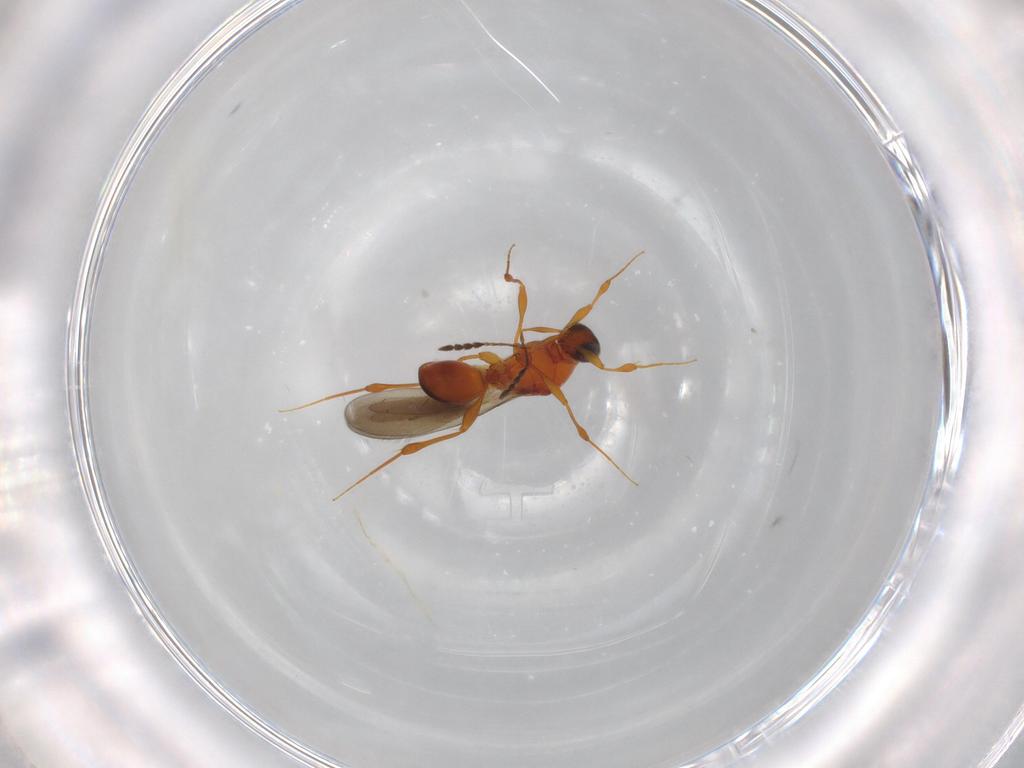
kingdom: Animalia
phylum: Arthropoda
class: Insecta
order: Hymenoptera
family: Platygastridae
